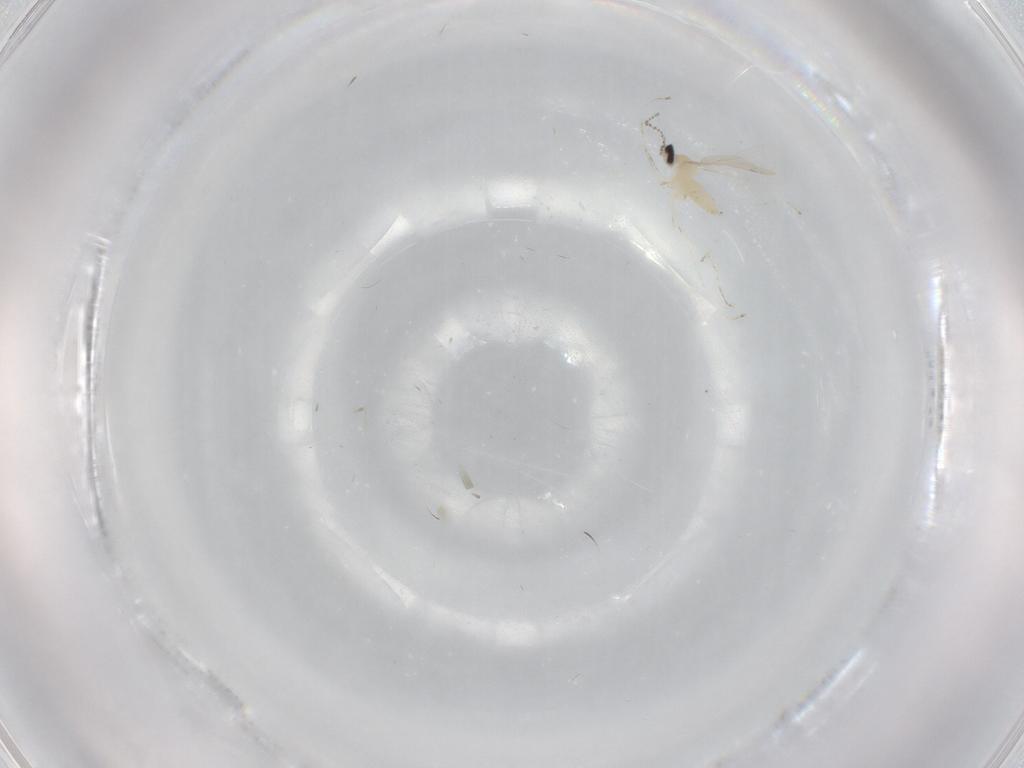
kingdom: Animalia
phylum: Arthropoda
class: Insecta
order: Diptera
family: Cecidomyiidae
